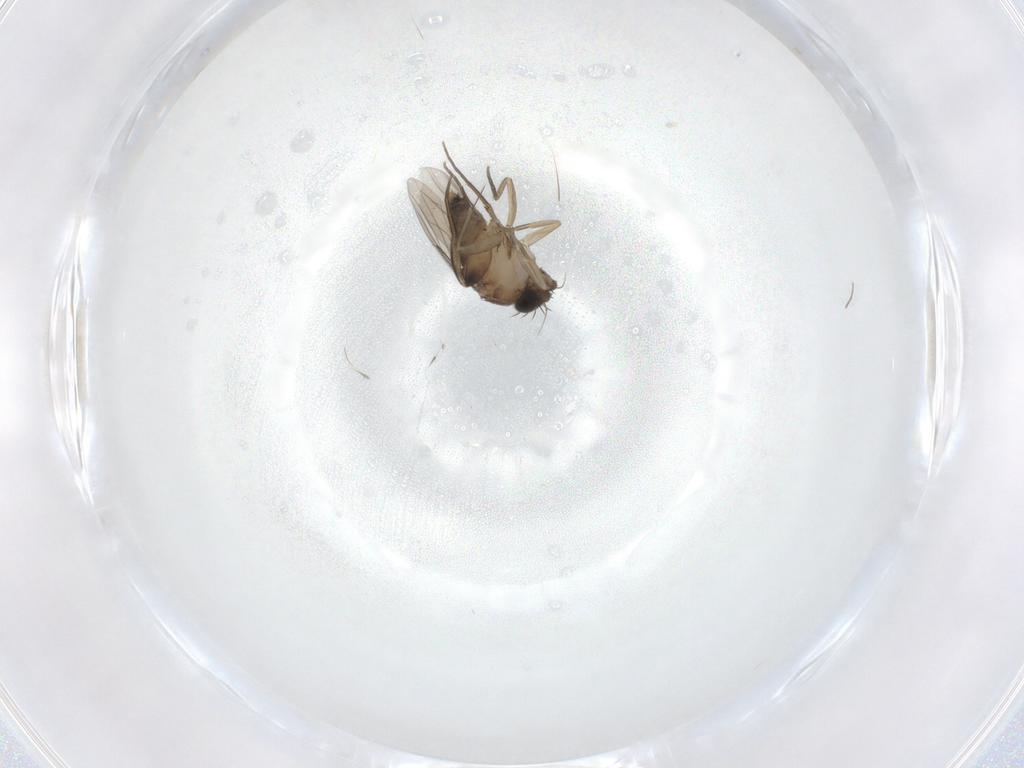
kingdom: Animalia
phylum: Arthropoda
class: Insecta
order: Diptera
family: Phoridae
